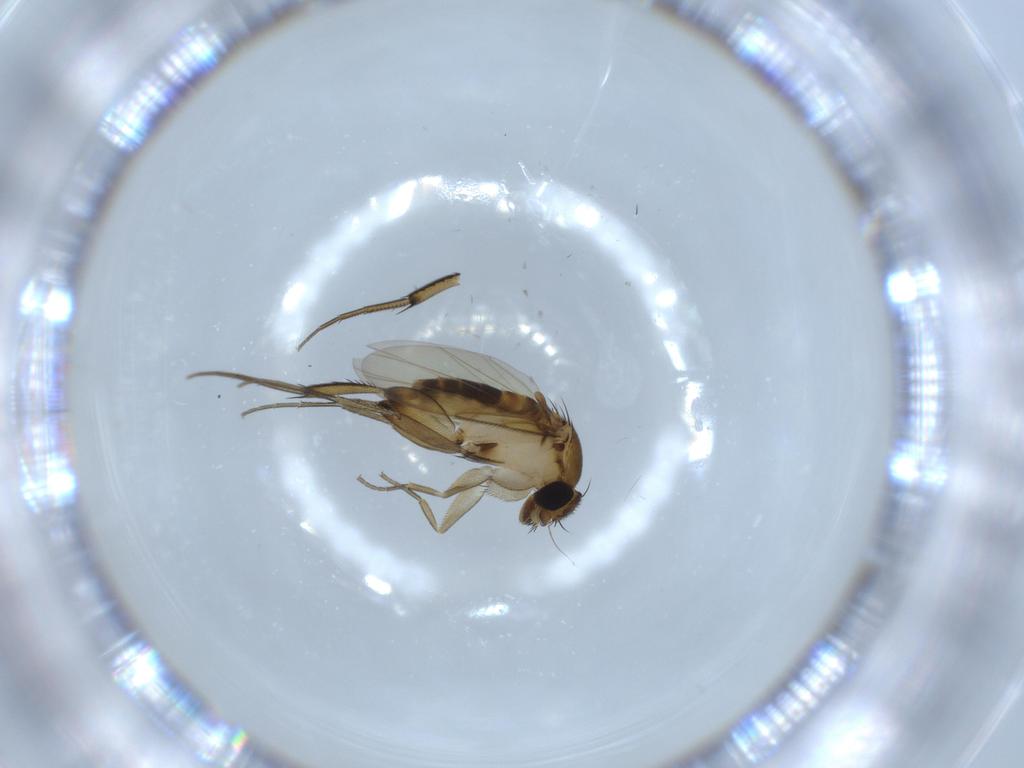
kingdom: Animalia
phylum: Arthropoda
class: Insecta
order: Diptera
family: Phoridae
